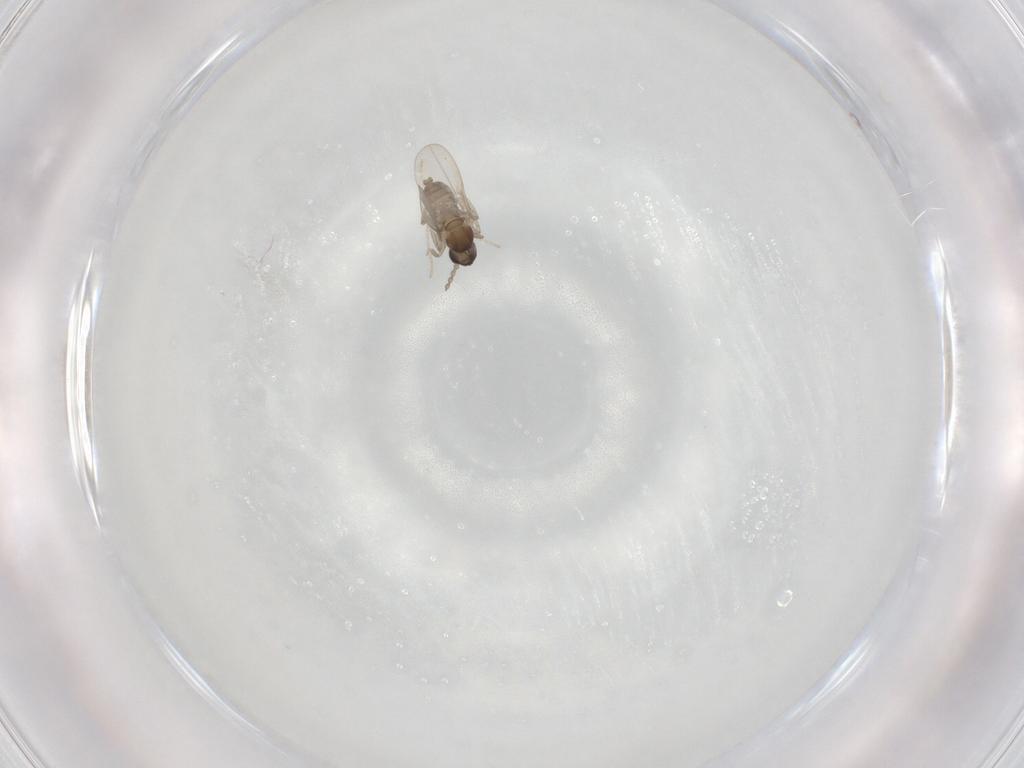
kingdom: Animalia
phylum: Arthropoda
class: Insecta
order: Diptera
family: Cecidomyiidae
